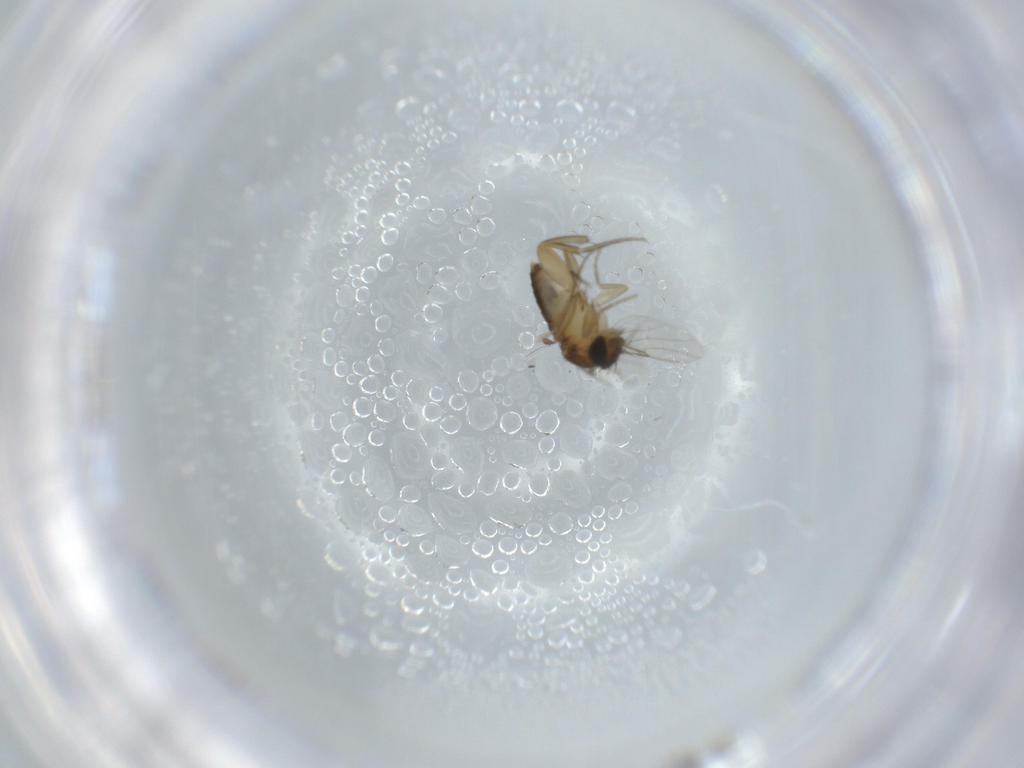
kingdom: Animalia
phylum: Arthropoda
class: Insecta
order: Diptera
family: Phoridae
